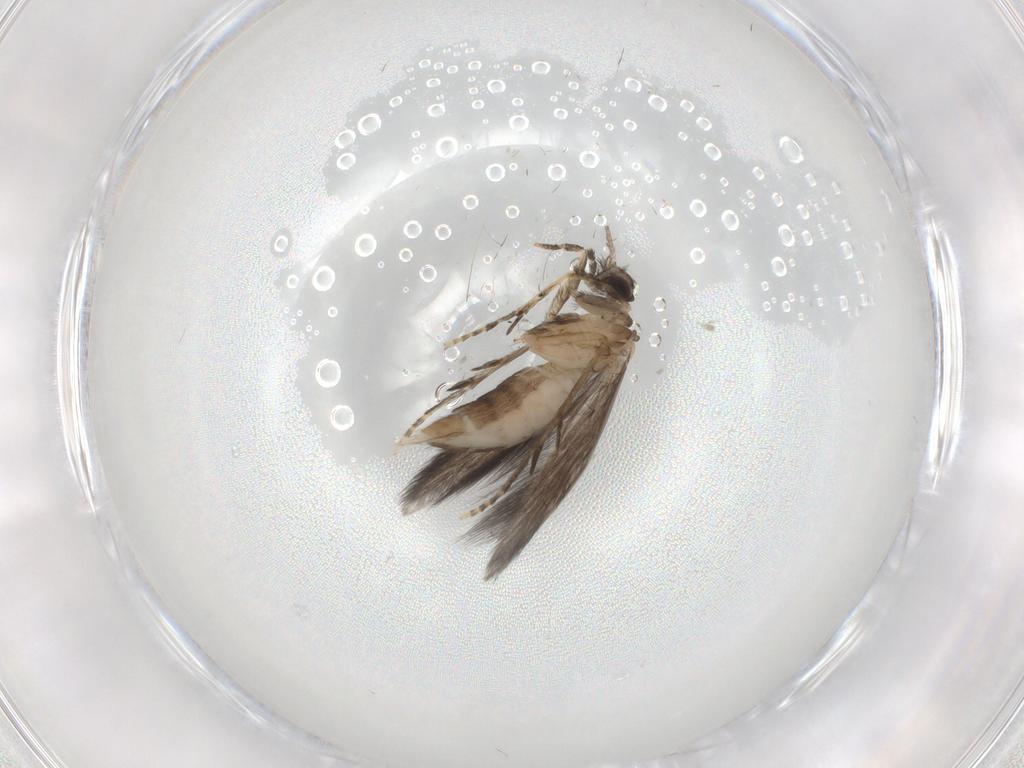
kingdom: Animalia
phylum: Arthropoda
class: Insecta
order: Trichoptera
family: Hydroptilidae
